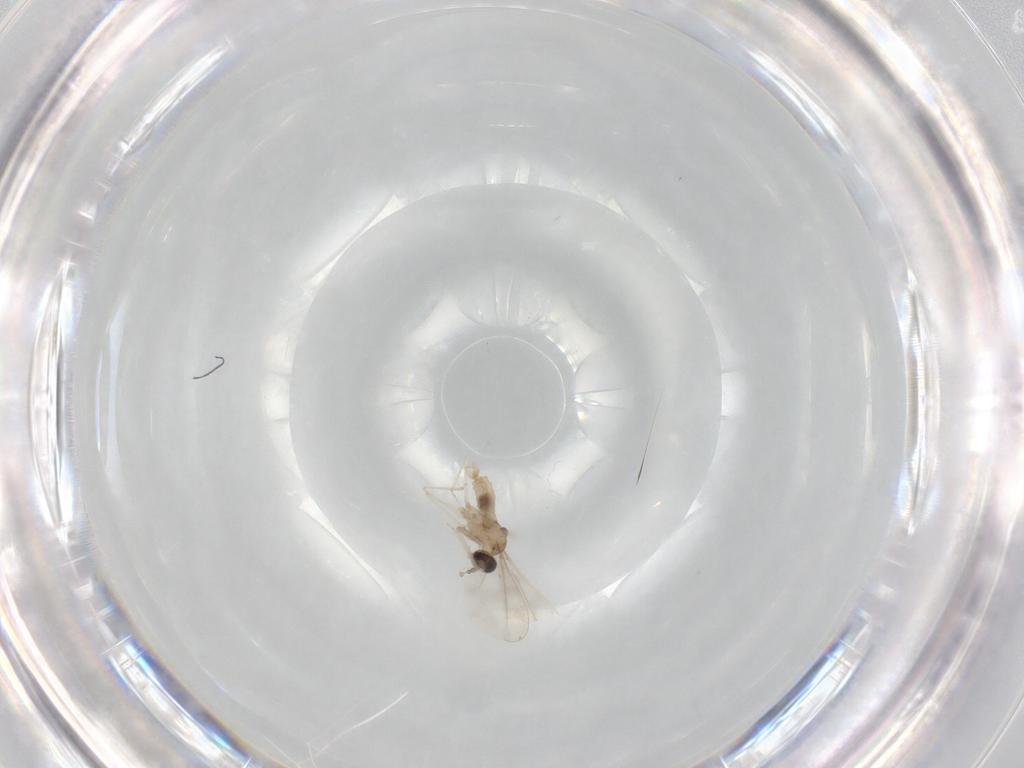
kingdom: Animalia
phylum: Arthropoda
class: Insecta
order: Diptera
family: Cecidomyiidae
